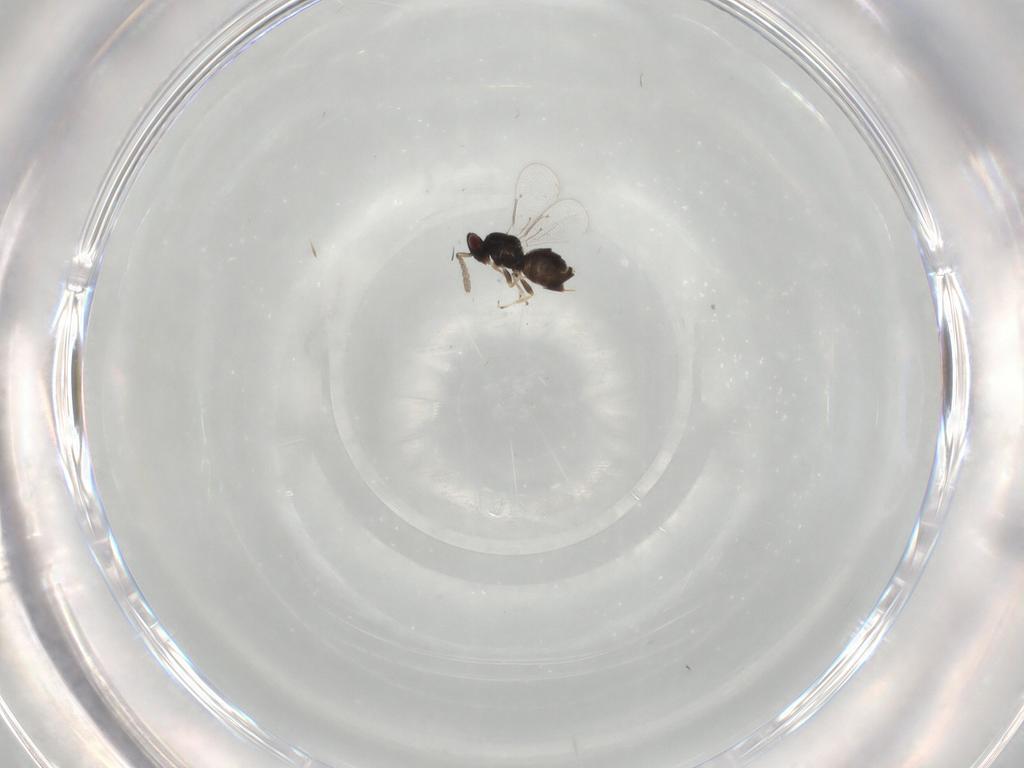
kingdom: Animalia
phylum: Arthropoda
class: Insecta
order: Hymenoptera
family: Eulophidae
